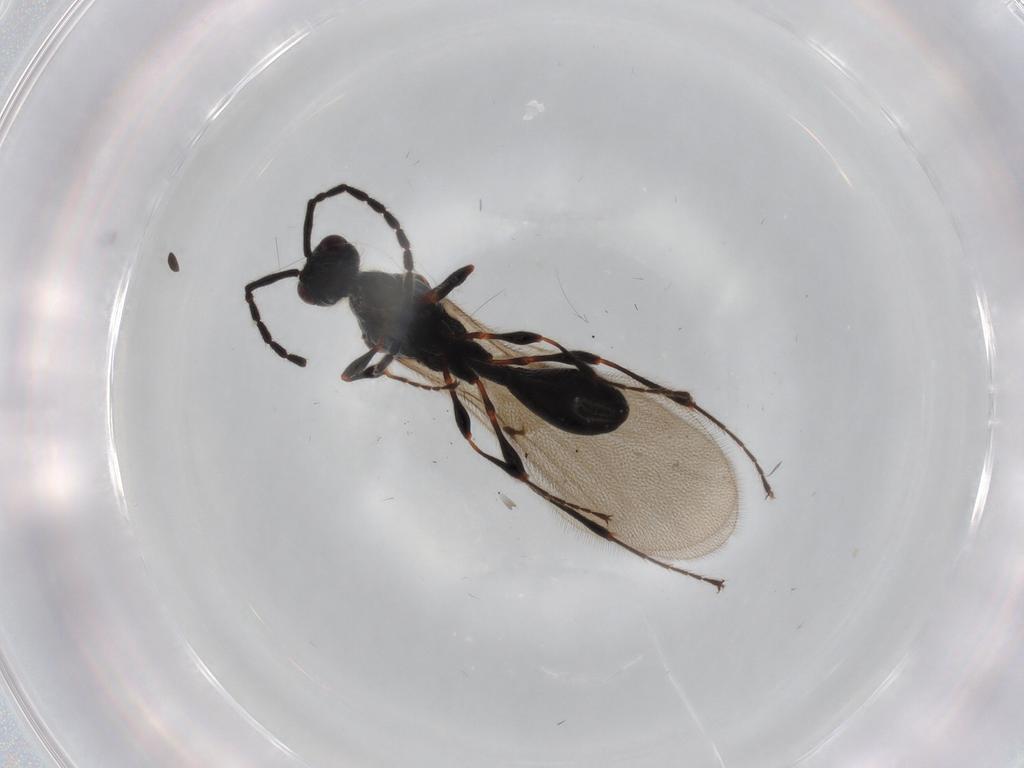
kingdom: Animalia
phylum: Arthropoda
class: Insecta
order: Hymenoptera
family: Diapriidae
